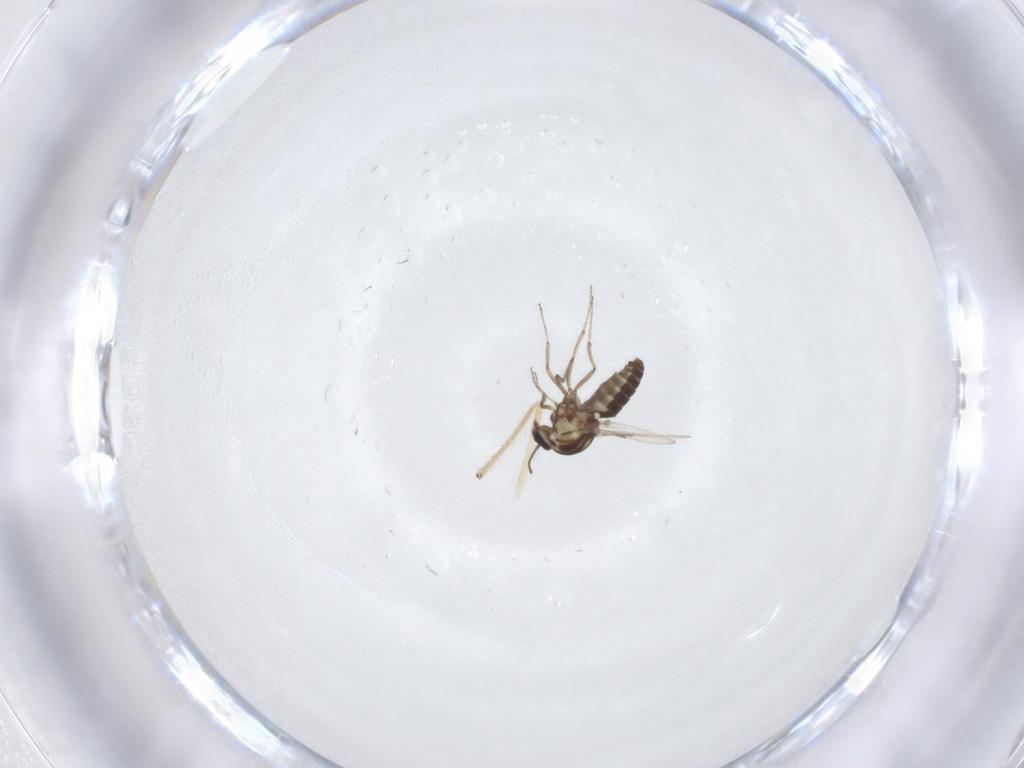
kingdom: Animalia
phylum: Arthropoda
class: Insecta
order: Diptera
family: Ceratopogonidae
